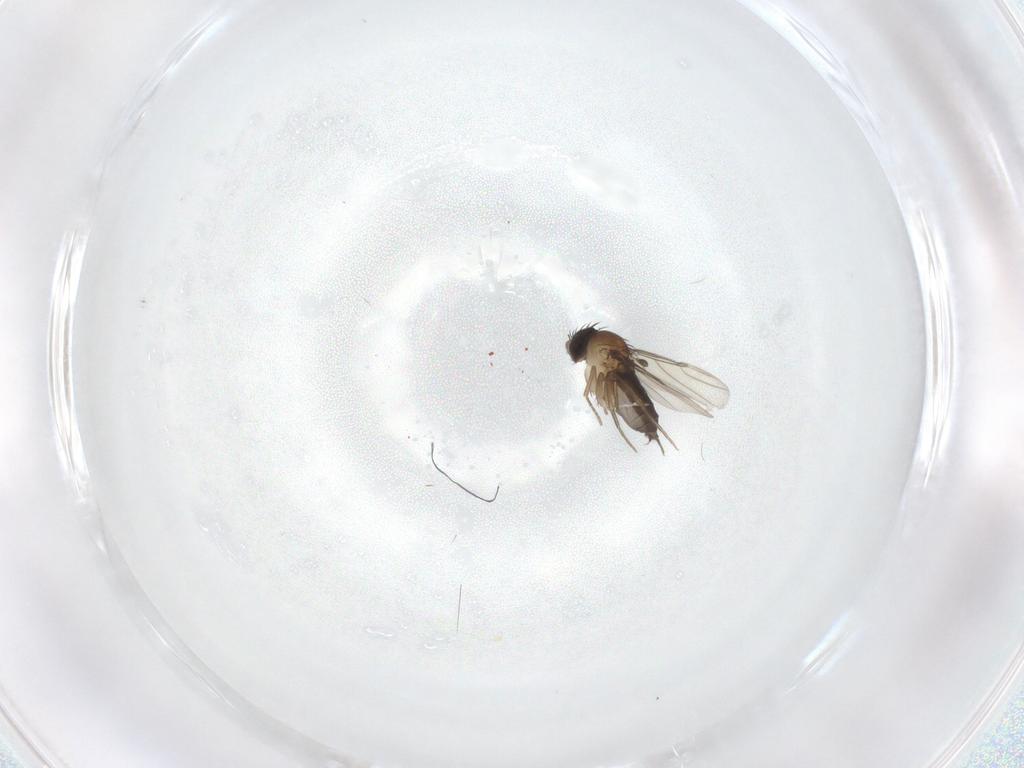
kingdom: Animalia
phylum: Arthropoda
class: Insecta
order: Diptera
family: Phoridae
